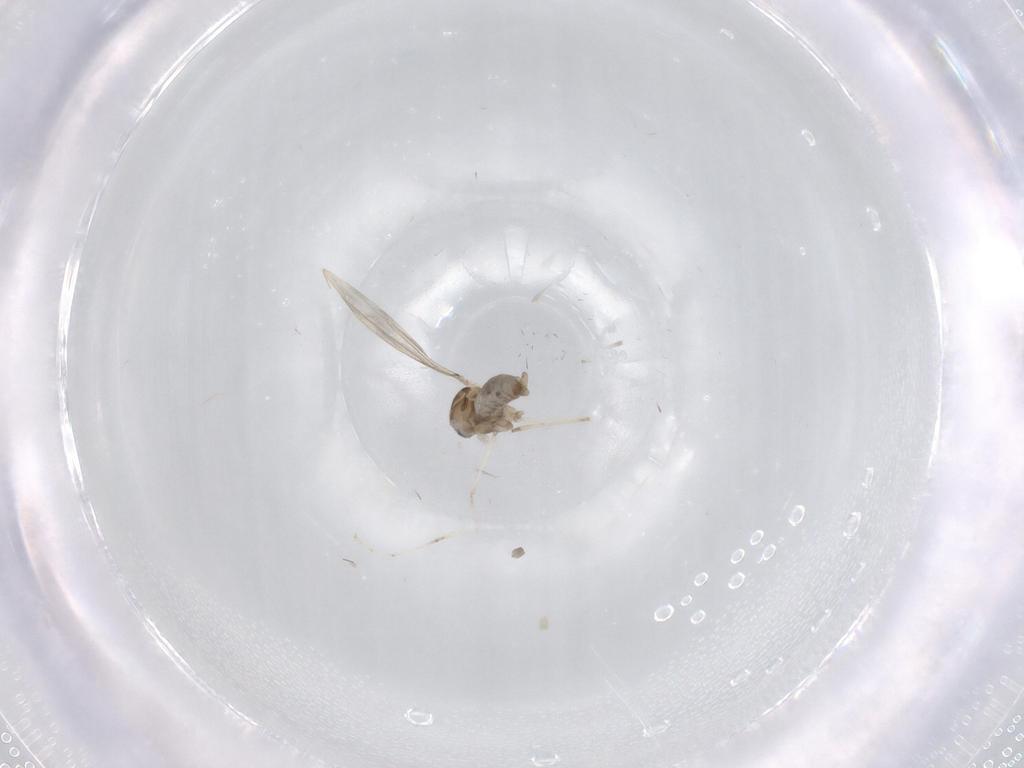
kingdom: Animalia
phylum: Arthropoda
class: Insecta
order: Diptera
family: Cecidomyiidae
